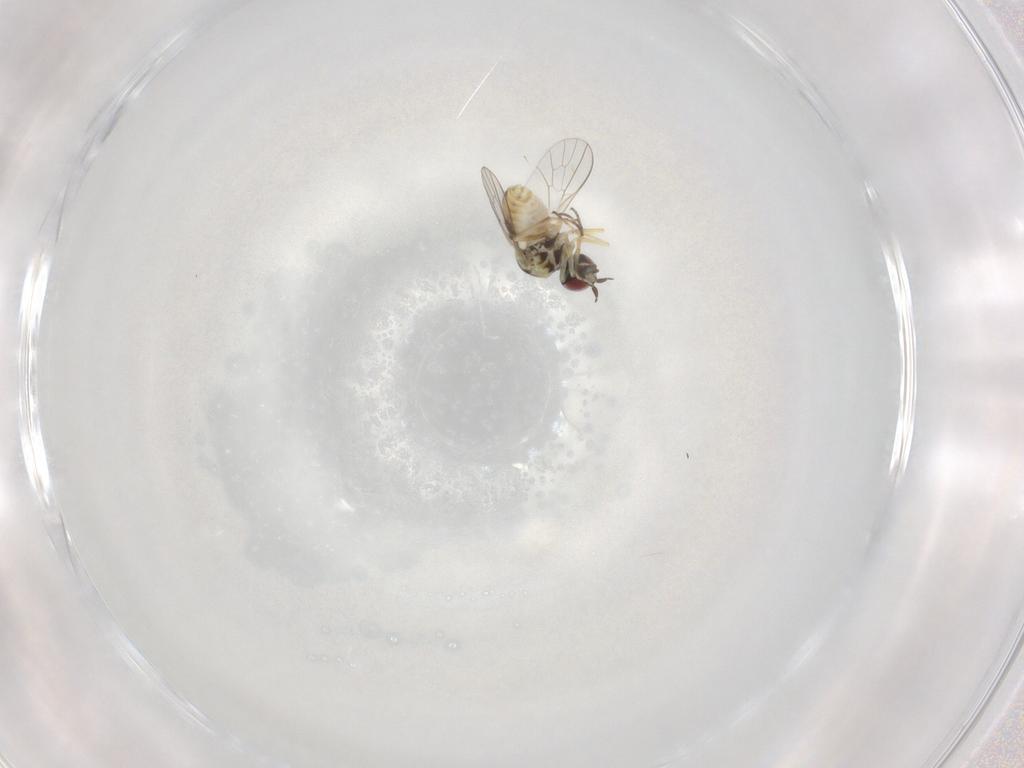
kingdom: Animalia
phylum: Arthropoda
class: Insecta
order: Diptera
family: Mythicomyiidae
